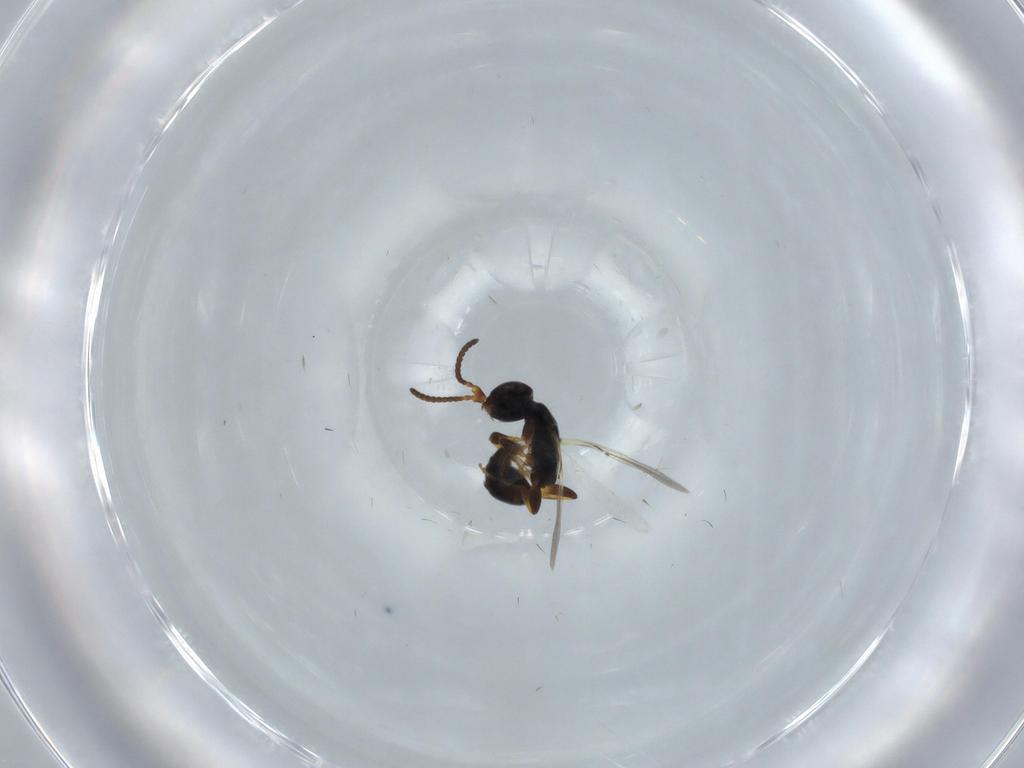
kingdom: Animalia
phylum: Arthropoda
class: Insecta
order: Hymenoptera
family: Bethylidae
